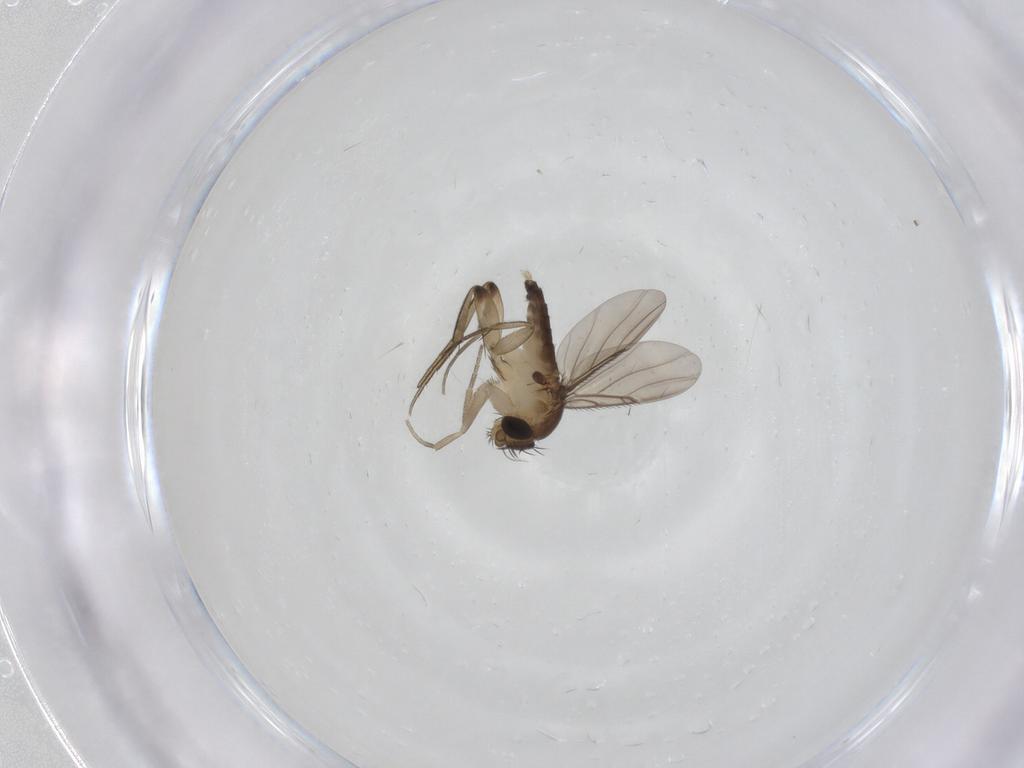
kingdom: Animalia
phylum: Arthropoda
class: Insecta
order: Diptera
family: Phoridae
